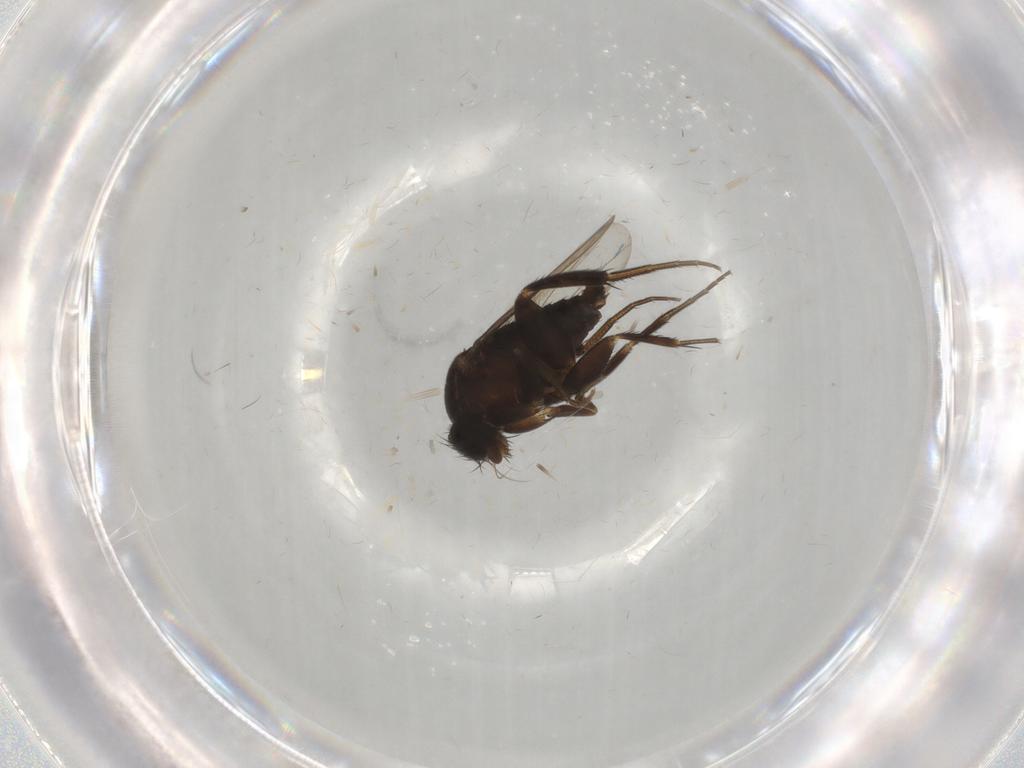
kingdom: Animalia
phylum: Arthropoda
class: Insecta
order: Diptera
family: Phoridae
